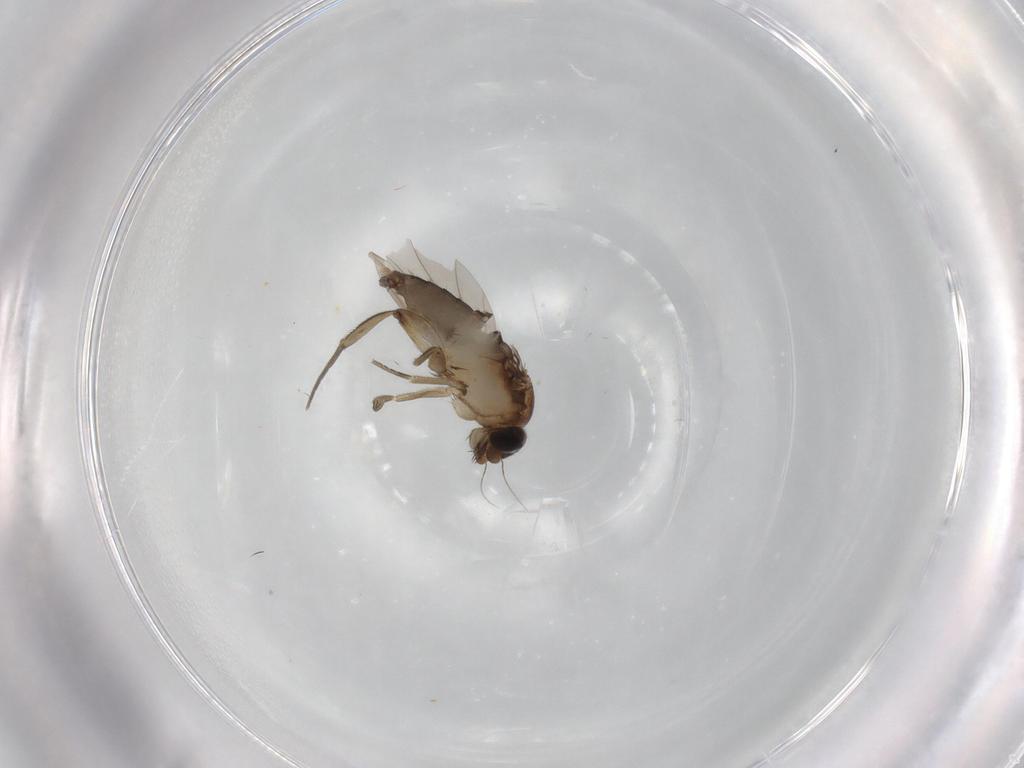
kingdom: Animalia
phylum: Arthropoda
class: Insecta
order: Diptera
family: Phoridae
